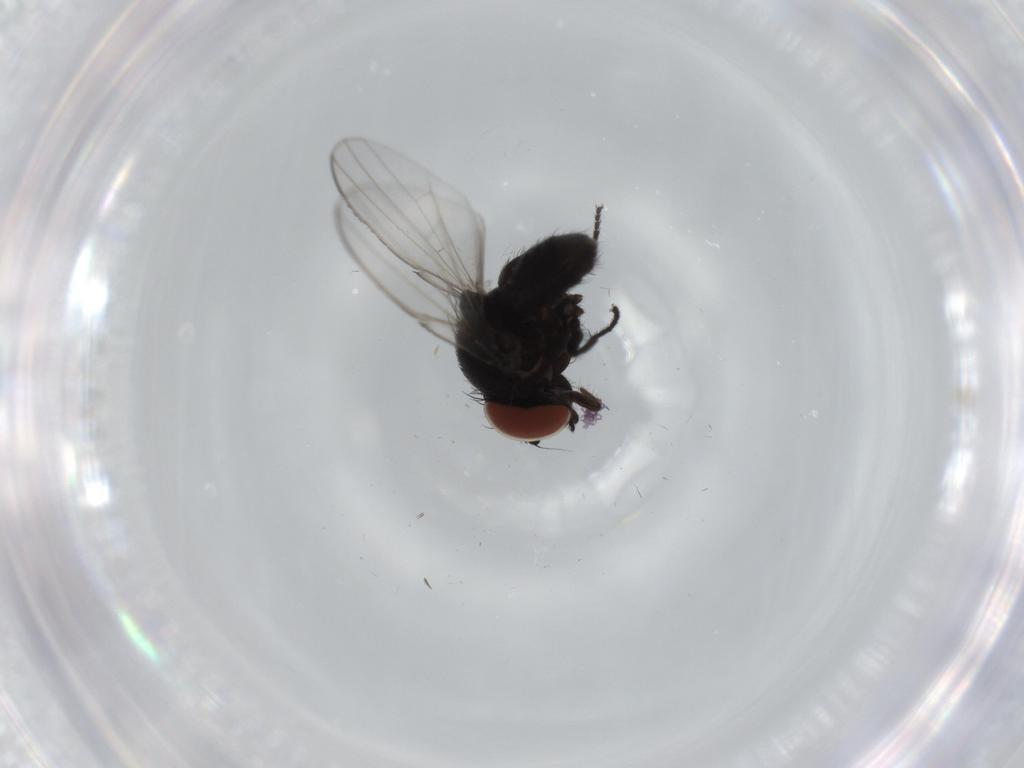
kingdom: Animalia
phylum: Arthropoda
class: Insecta
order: Diptera
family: Milichiidae
